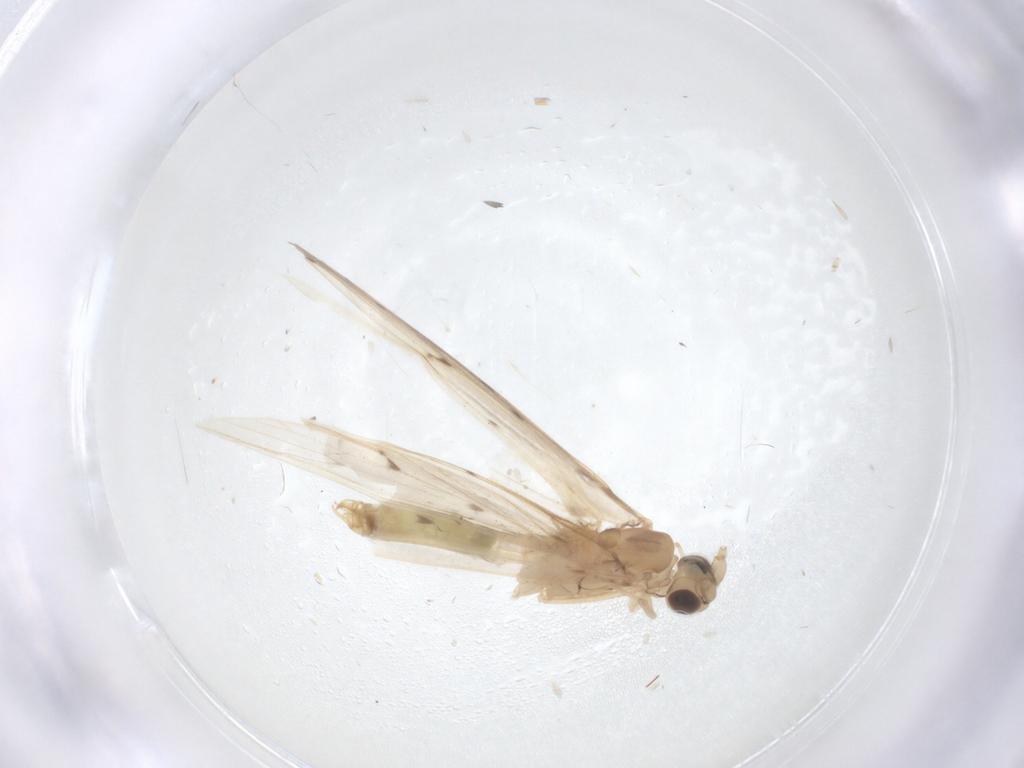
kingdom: Animalia
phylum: Arthropoda
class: Insecta
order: Trichoptera
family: Leptoceridae
